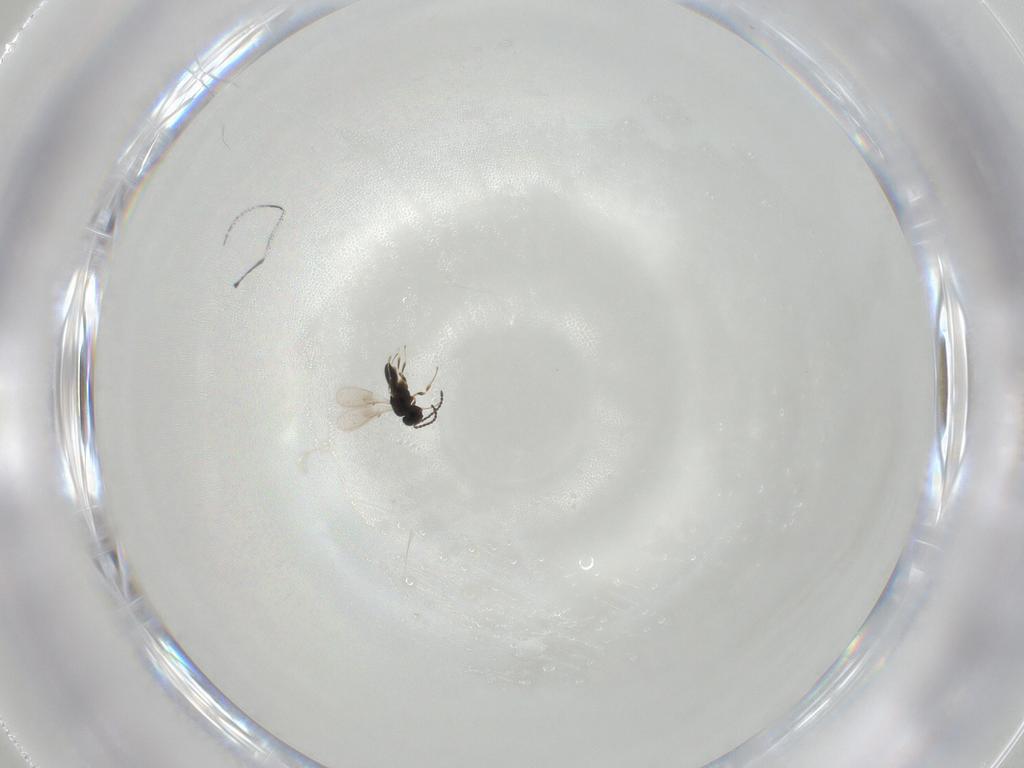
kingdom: Animalia
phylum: Arthropoda
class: Insecta
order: Hymenoptera
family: Scelionidae
